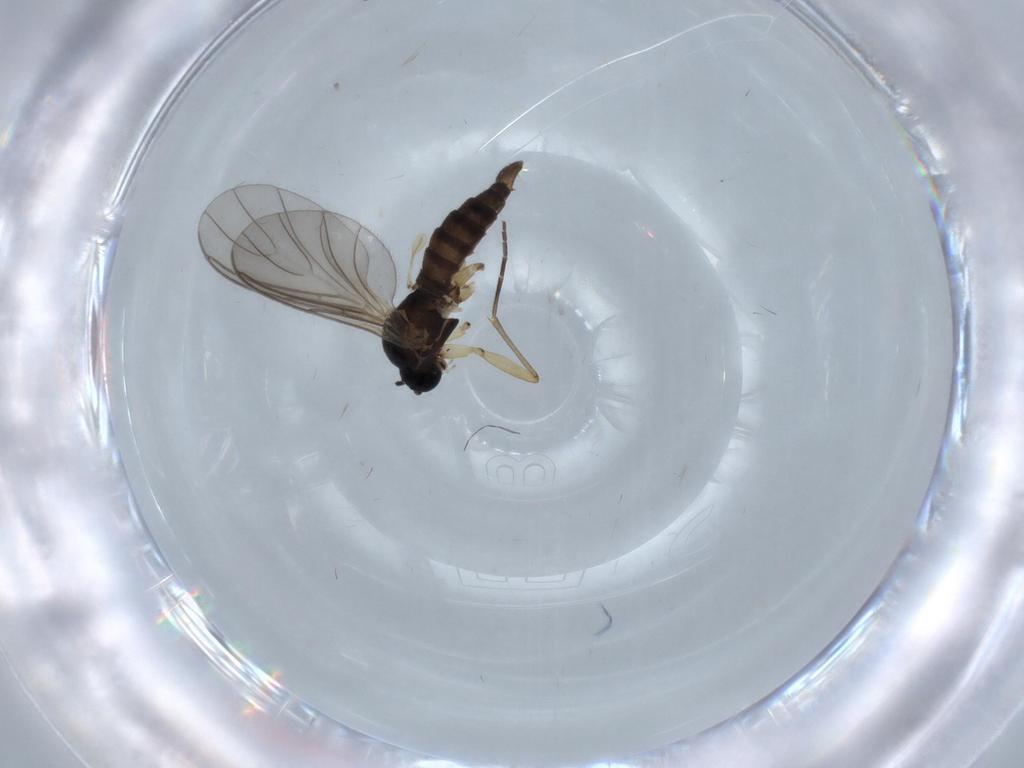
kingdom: Animalia
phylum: Arthropoda
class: Insecta
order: Diptera
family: Sciaridae
